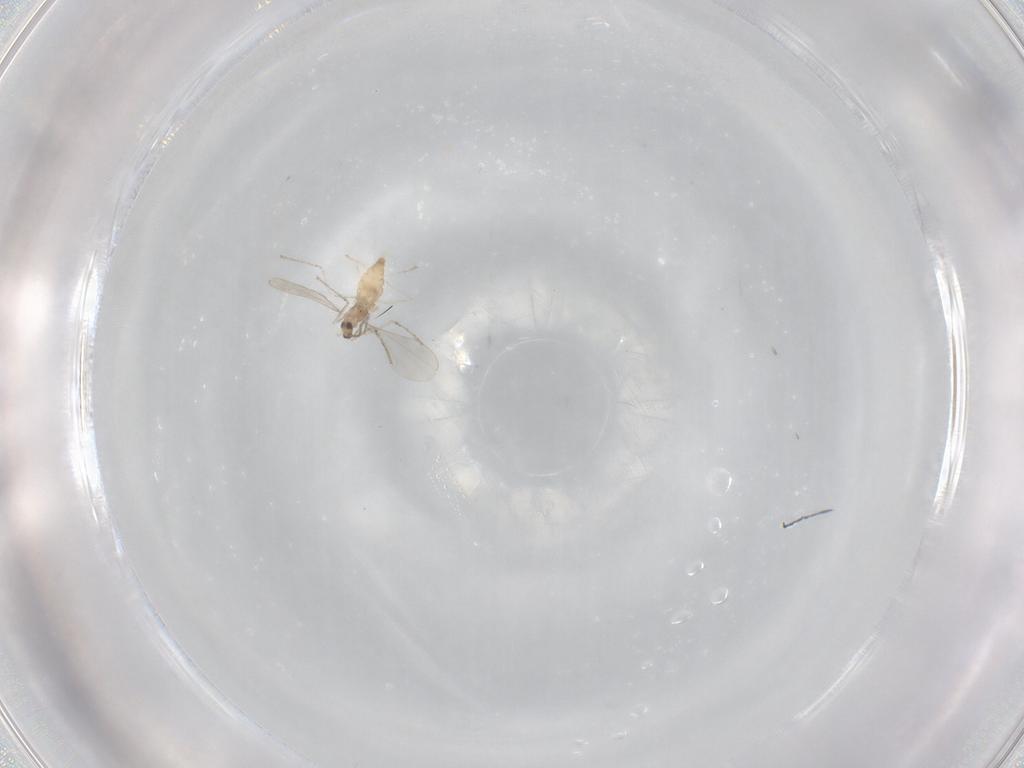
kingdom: Animalia
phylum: Arthropoda
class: Insecta
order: Diptera
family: Cecidomyiidae
